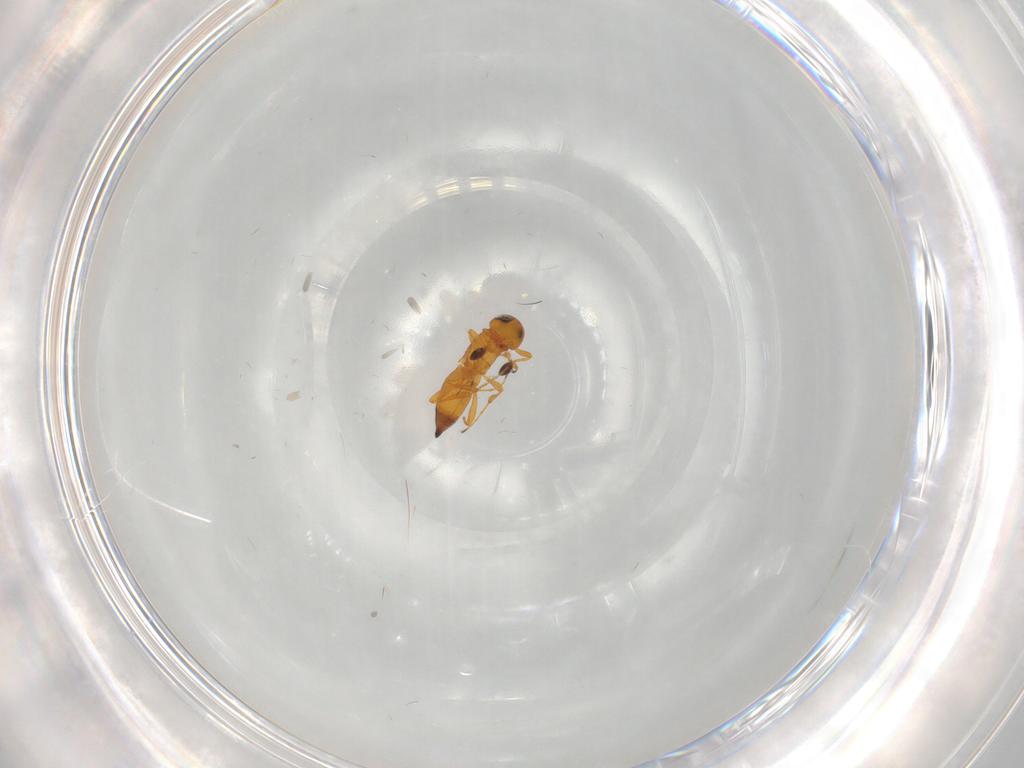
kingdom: Animalia
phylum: Arthropoda
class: Insecta
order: Hymenoptera
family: Platygastridae
